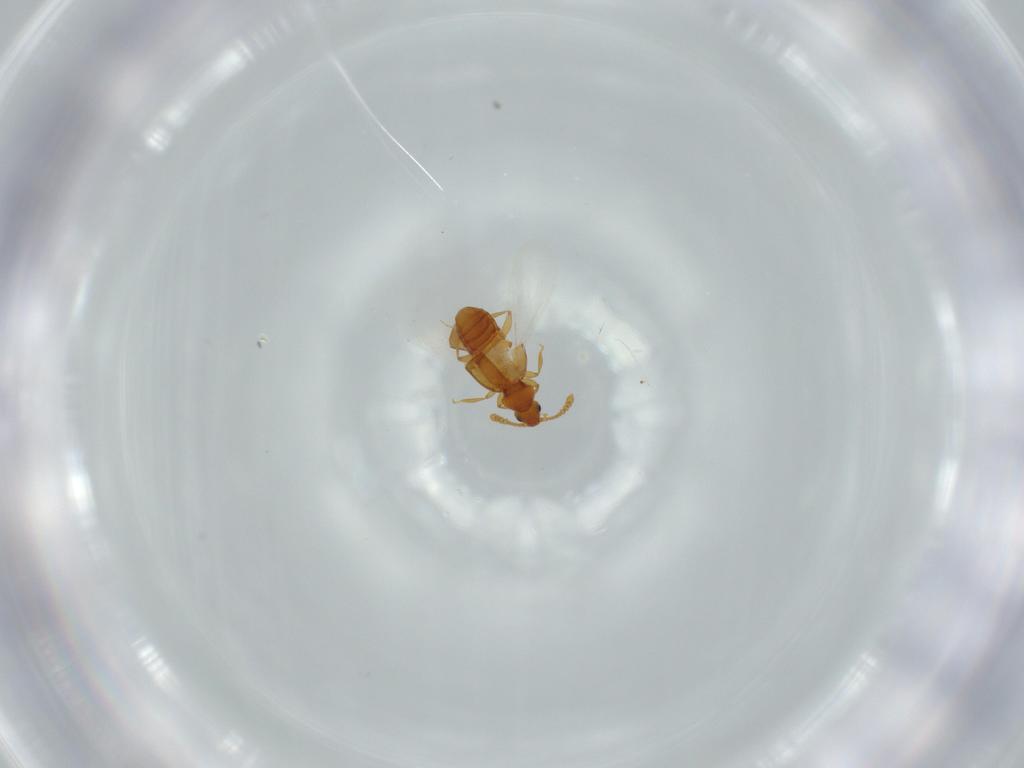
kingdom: Animalia
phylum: Arthropoda
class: Insecta
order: Coleoptera
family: Staphylinidae
